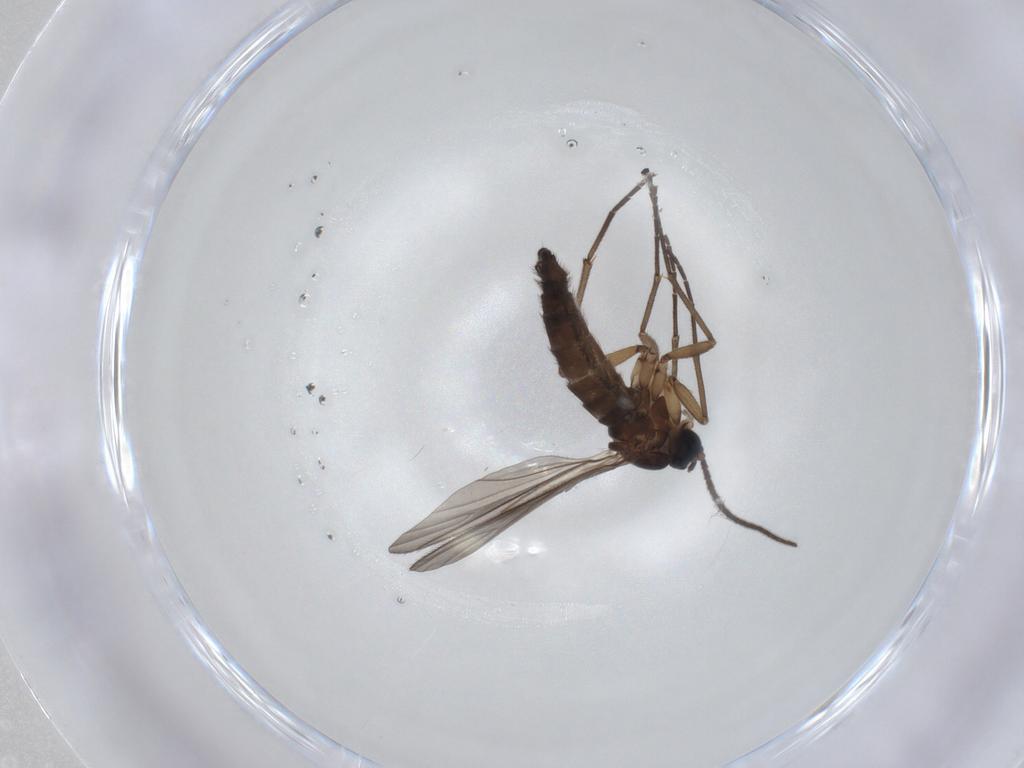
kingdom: Animalia
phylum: Arthropoda
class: Insecta
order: Diptera
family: Sciaridae
